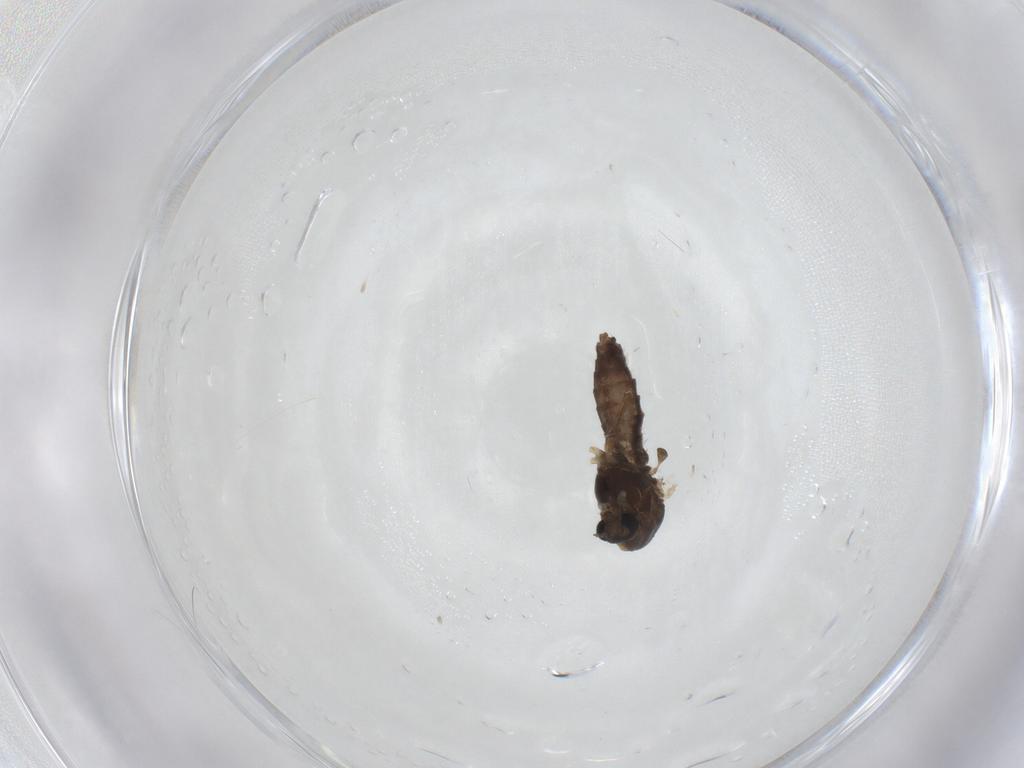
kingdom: Animalia
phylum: Arthropoda
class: Insecta
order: Diptera
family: Chironomidae
